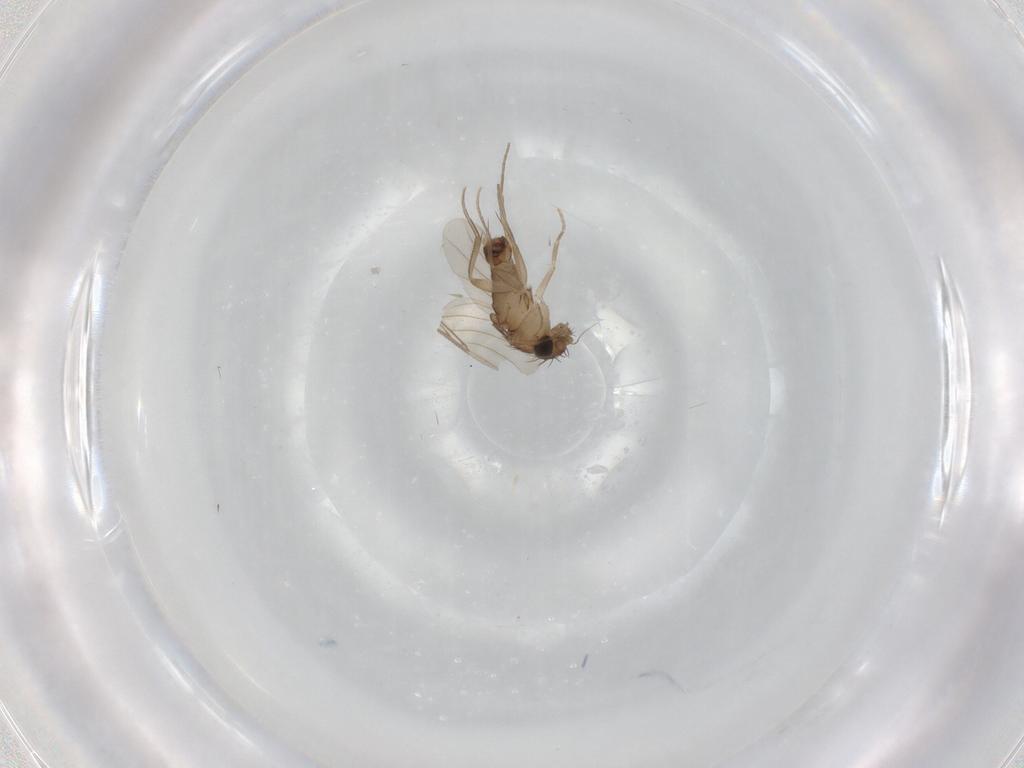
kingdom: Animalia
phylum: Arthropoda
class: Insecta
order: Diptera
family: Phoridae
